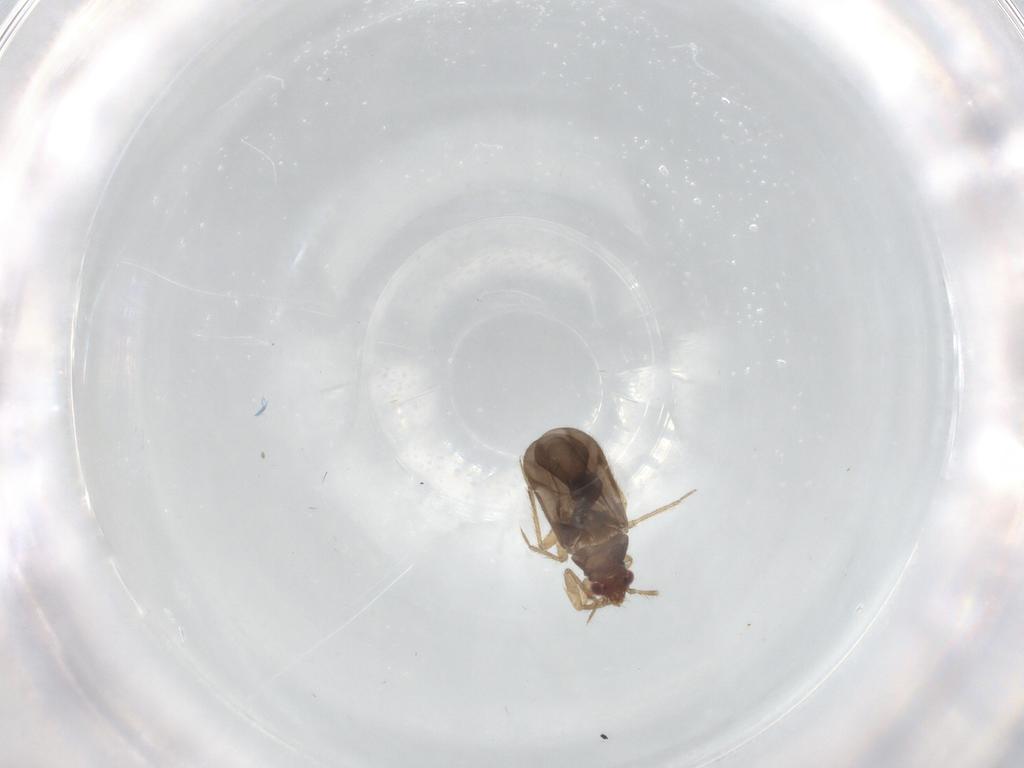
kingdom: Animalia
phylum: Arthropoda
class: Insecta
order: Hemiptera
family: Ceratocombidae
